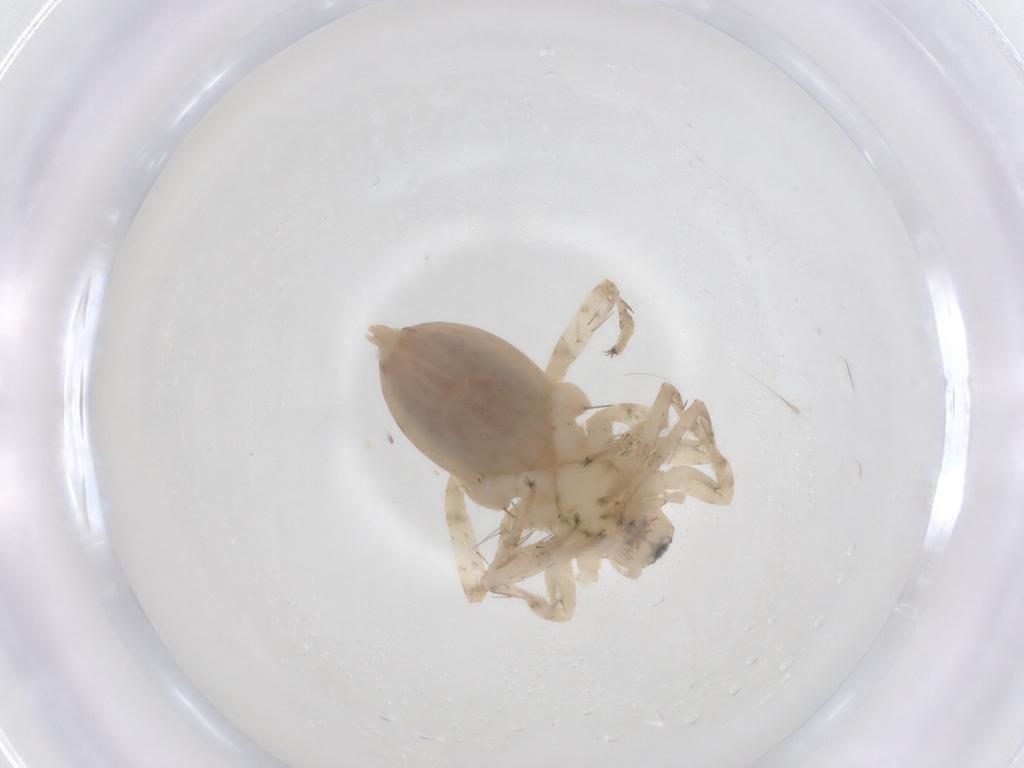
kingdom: Animalia
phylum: Arthropoda
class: Arachnida
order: Araneae
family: Anyphaenidae
